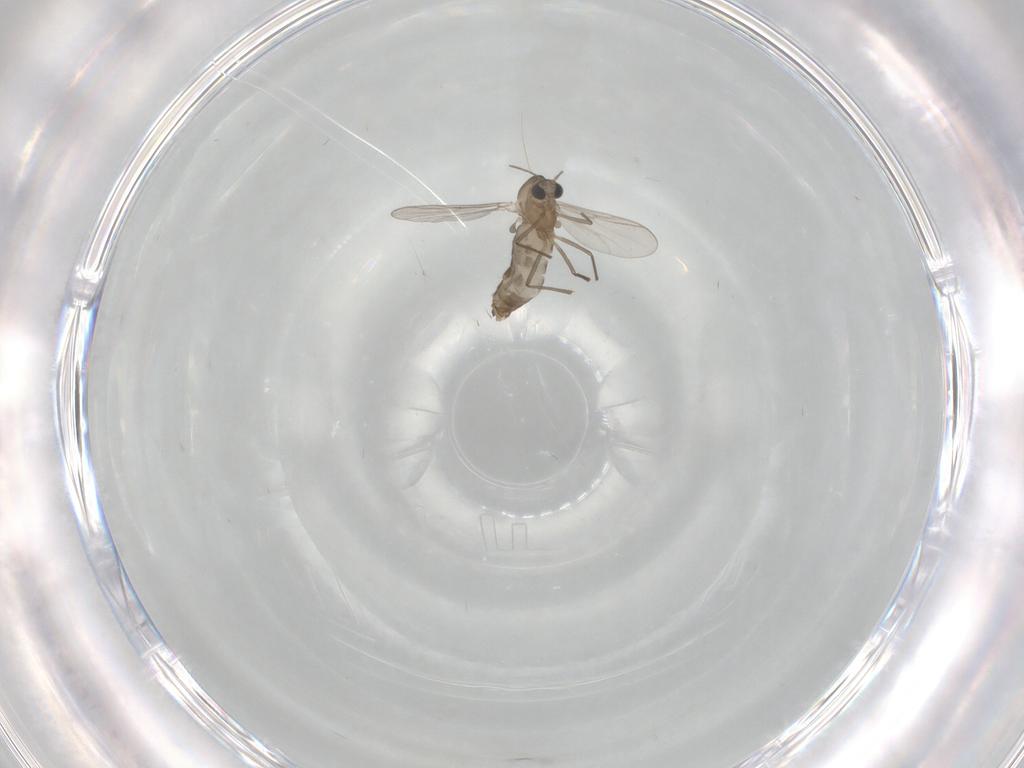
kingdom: Animalia
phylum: Arthropoda
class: Insecta
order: Diptera
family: Chironomidae
